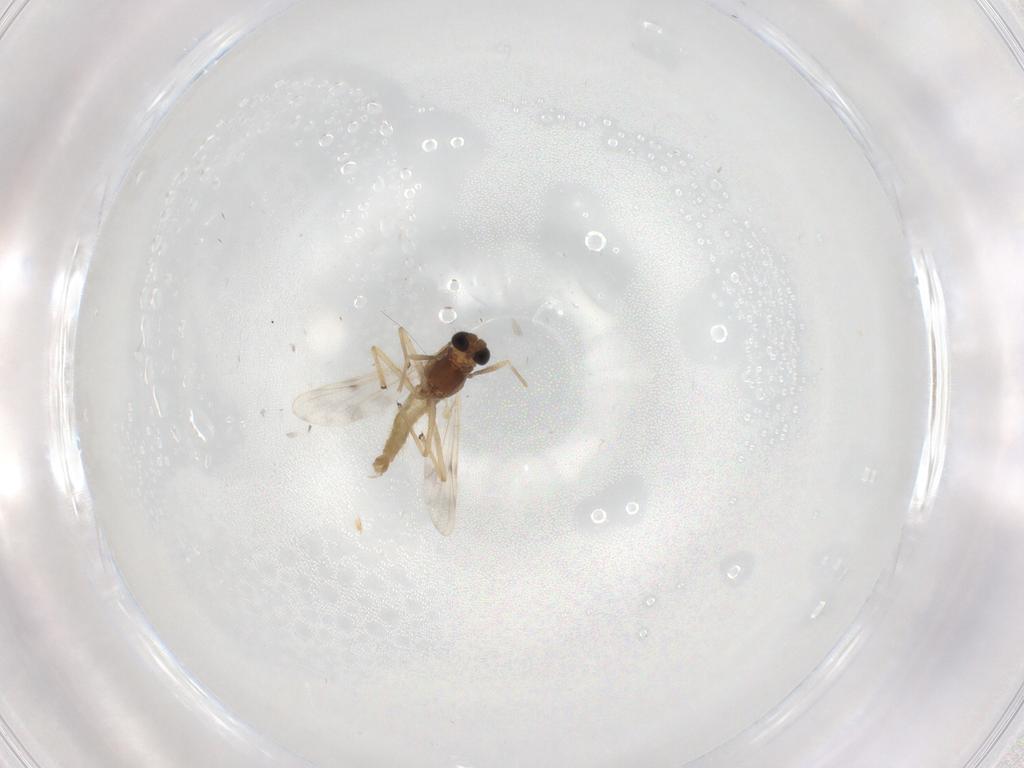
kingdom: Animalia
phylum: Arthropoda
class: Insecta
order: Diptera
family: Chironomidae
